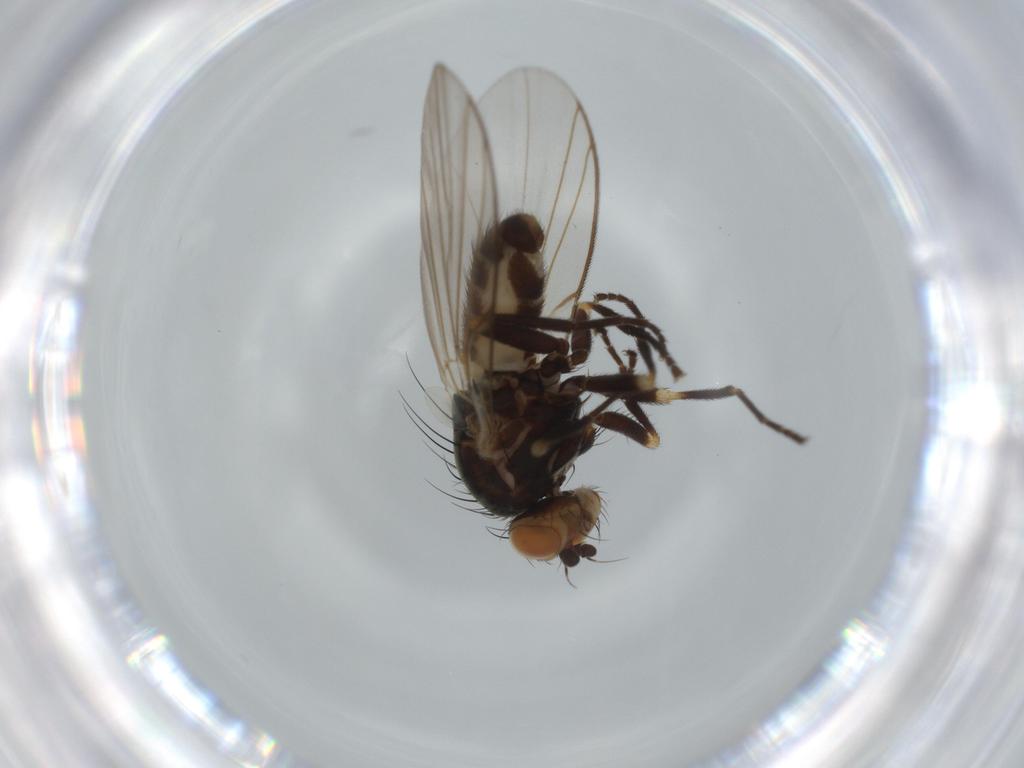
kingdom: Animalia
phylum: Arthropoda
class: Insecta
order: Diptera
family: Agromyzidae
